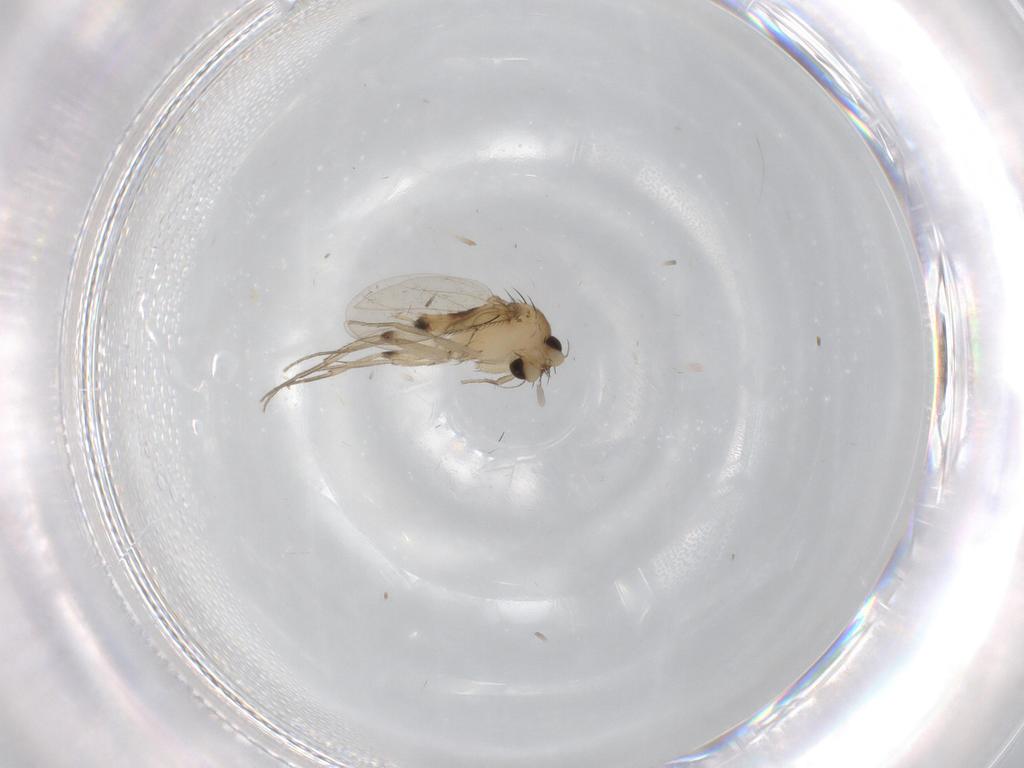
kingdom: Animalia
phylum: Arthropoda
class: Insecta
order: Diptera
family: Phoridae
